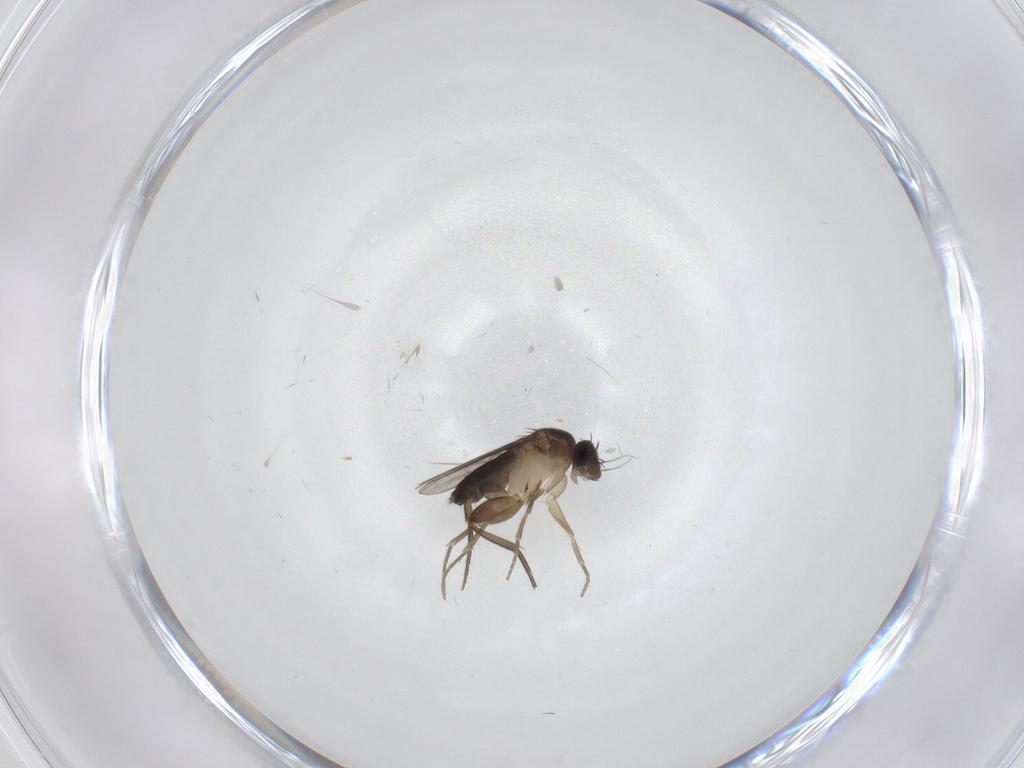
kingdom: Animalia
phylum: Arthropoda
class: Insecta
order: Diptera
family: Phoridae
